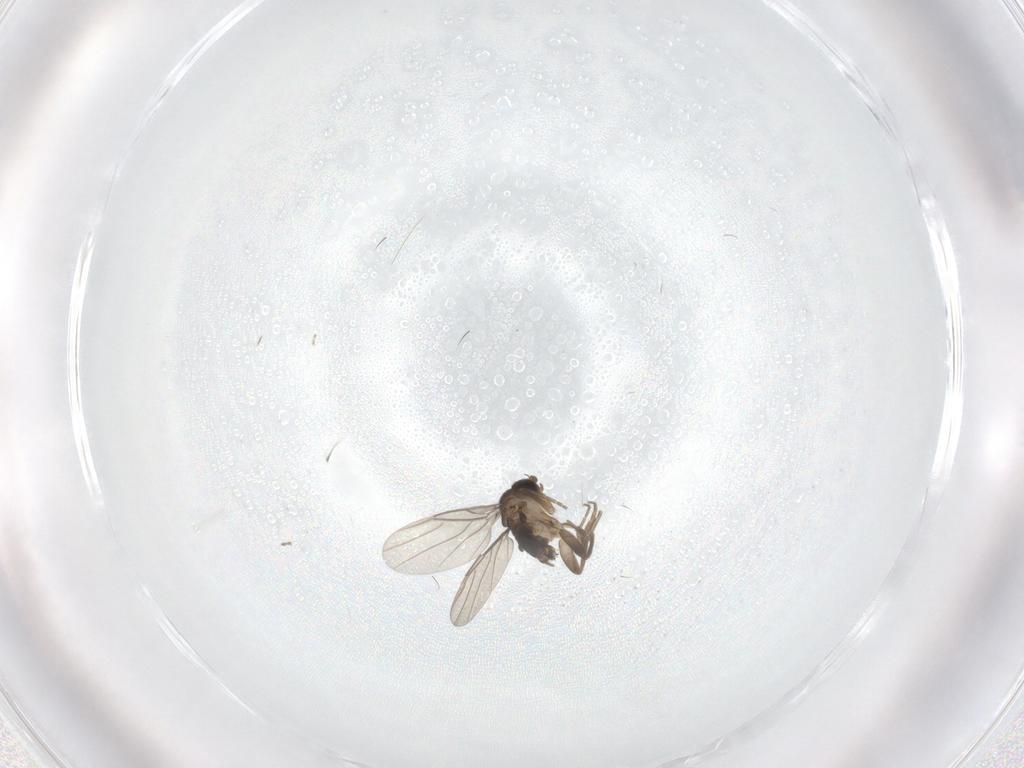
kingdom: Animalia
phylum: Arthropoda
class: Insecta
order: Diptera
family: Phoridae
